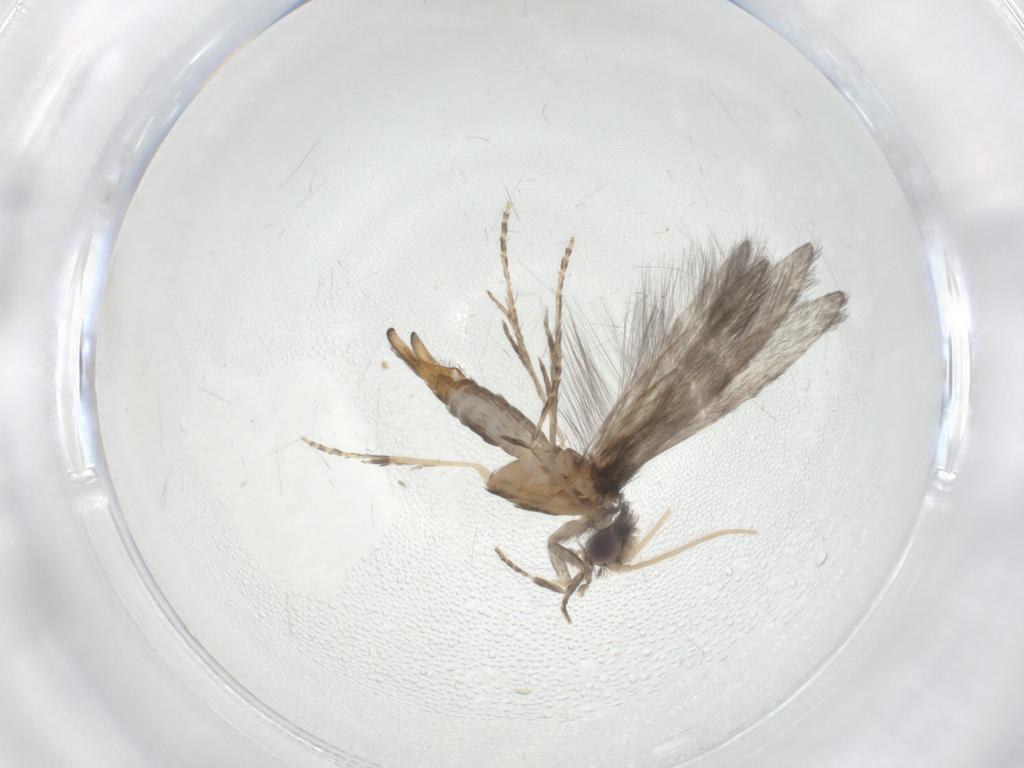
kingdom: Animalia
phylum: Arthropoda
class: Insecta
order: Trichoptera
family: Hydroptilidae
